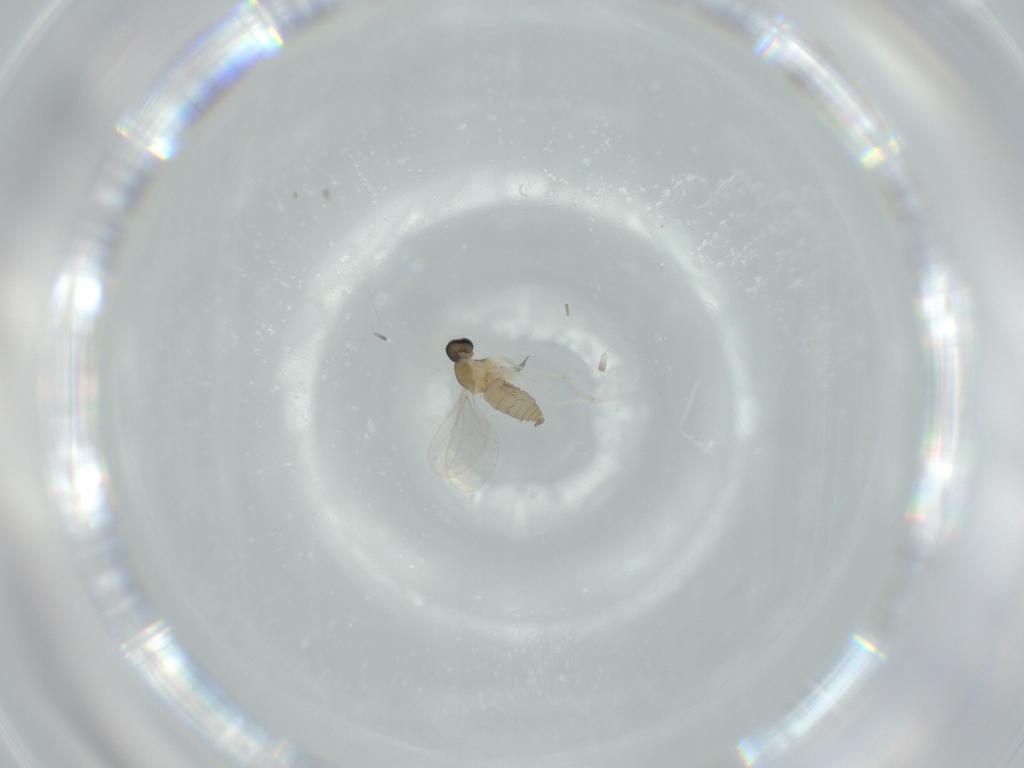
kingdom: Animalia
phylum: Arthropoda
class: Insecta
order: Diptera
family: Cecidomyiidae
